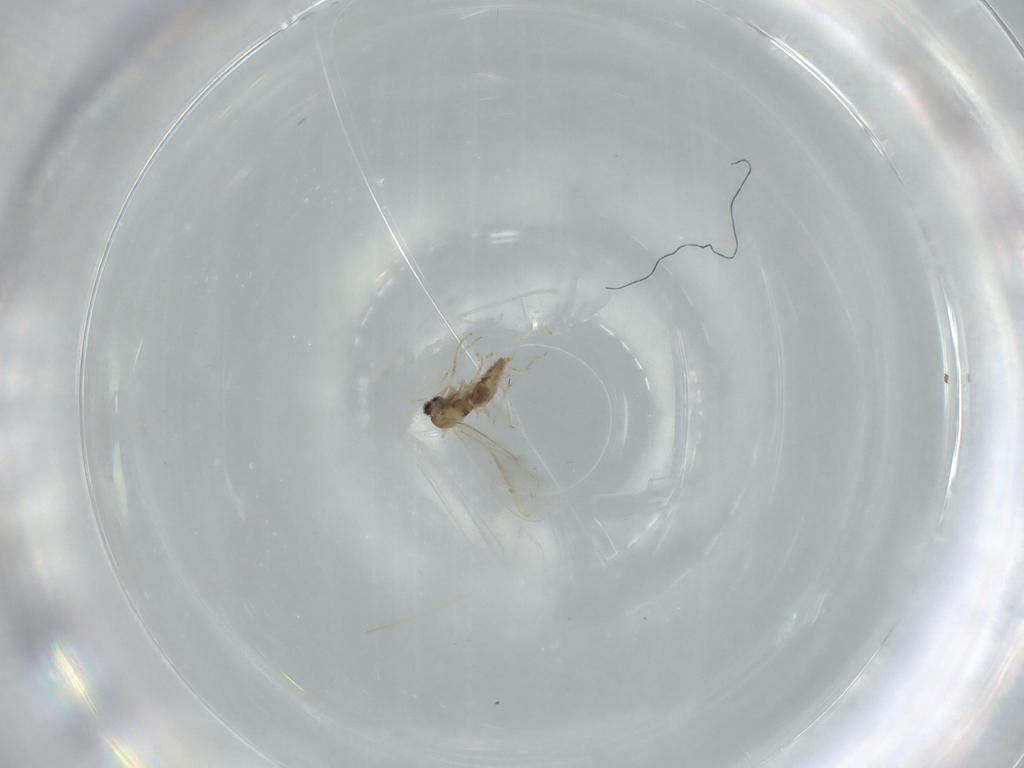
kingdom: Animalia
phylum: Arthropoda
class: Insecta
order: Diptera
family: Cecidomyiidae
